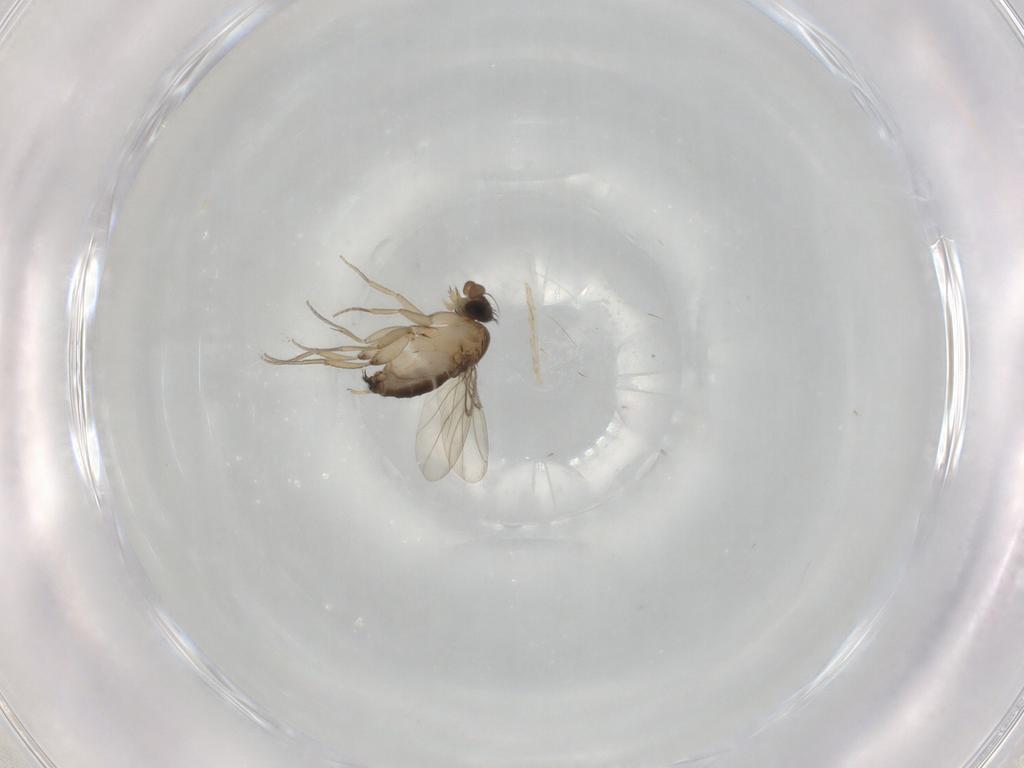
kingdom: Animalia
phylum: Arthropoda
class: Insecta
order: Diptera
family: Phoridae
